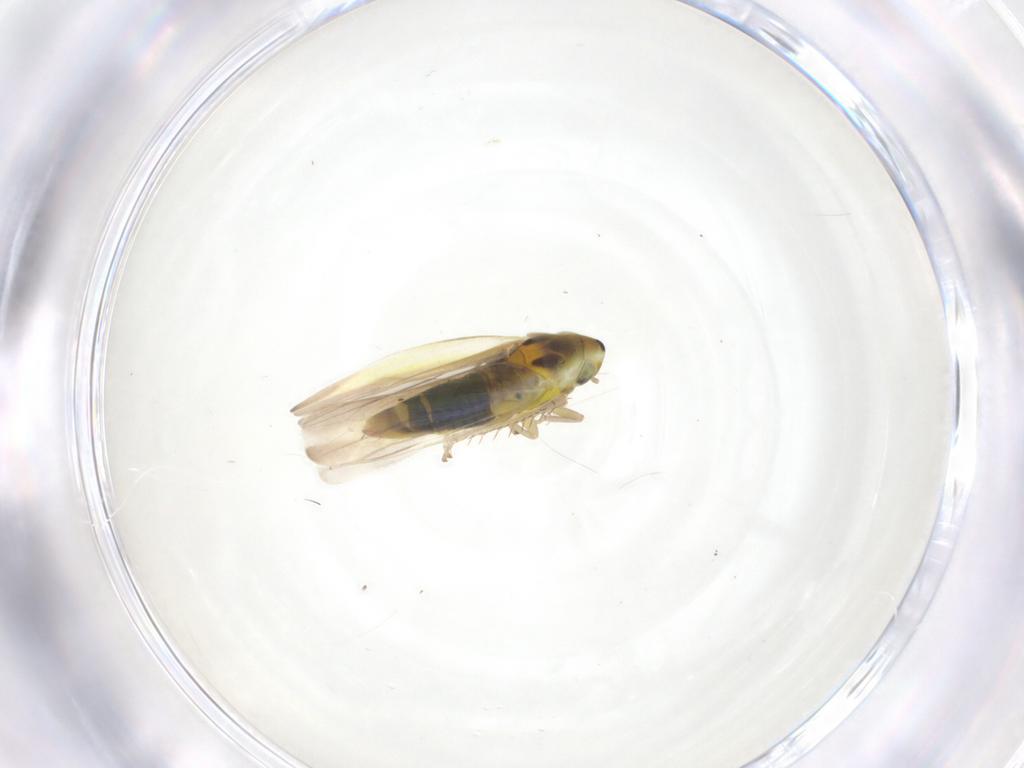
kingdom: Animalia
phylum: Arthropoda
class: Insecta
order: Hemiptera
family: Cicadellidae
